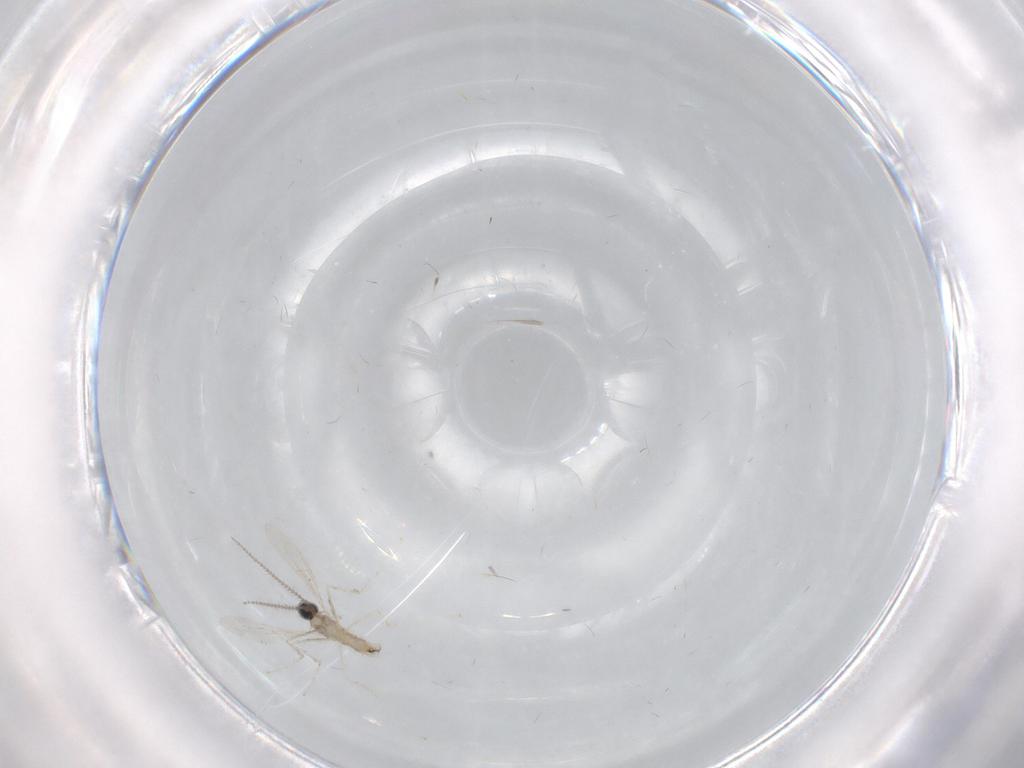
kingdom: Animalia
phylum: Arthropoda
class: Insecta
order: Diptera
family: Cecidomyiidae
